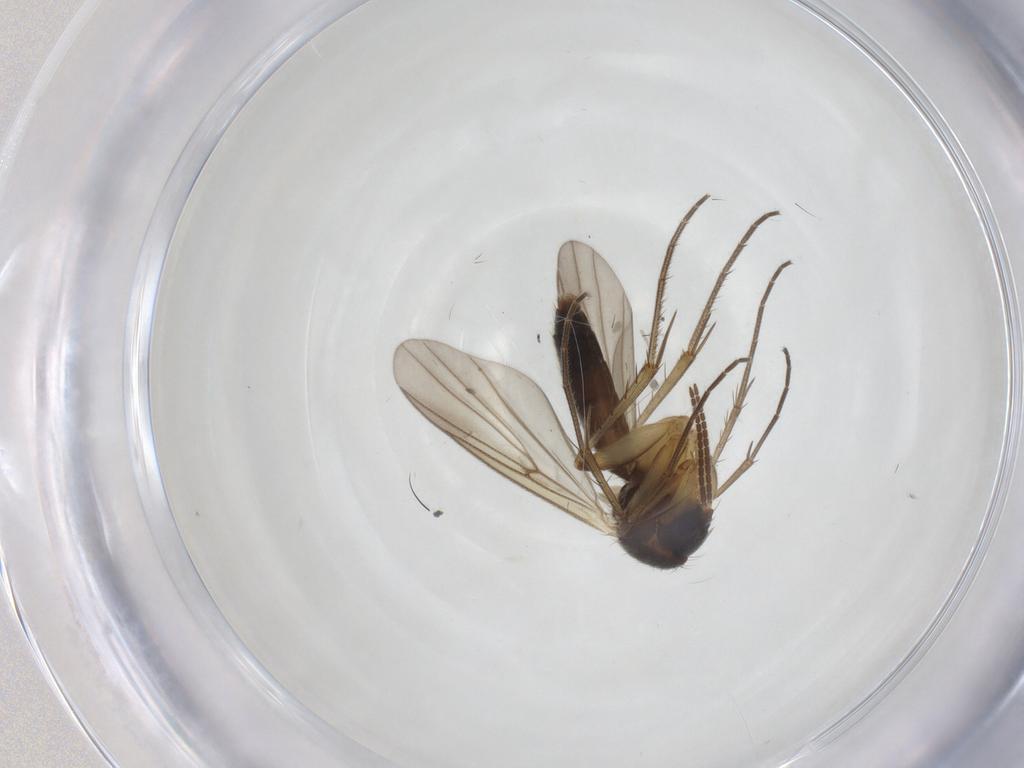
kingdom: Animalia
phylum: Arthropoda
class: Insecta
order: Diptera
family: Mycetophilidae
